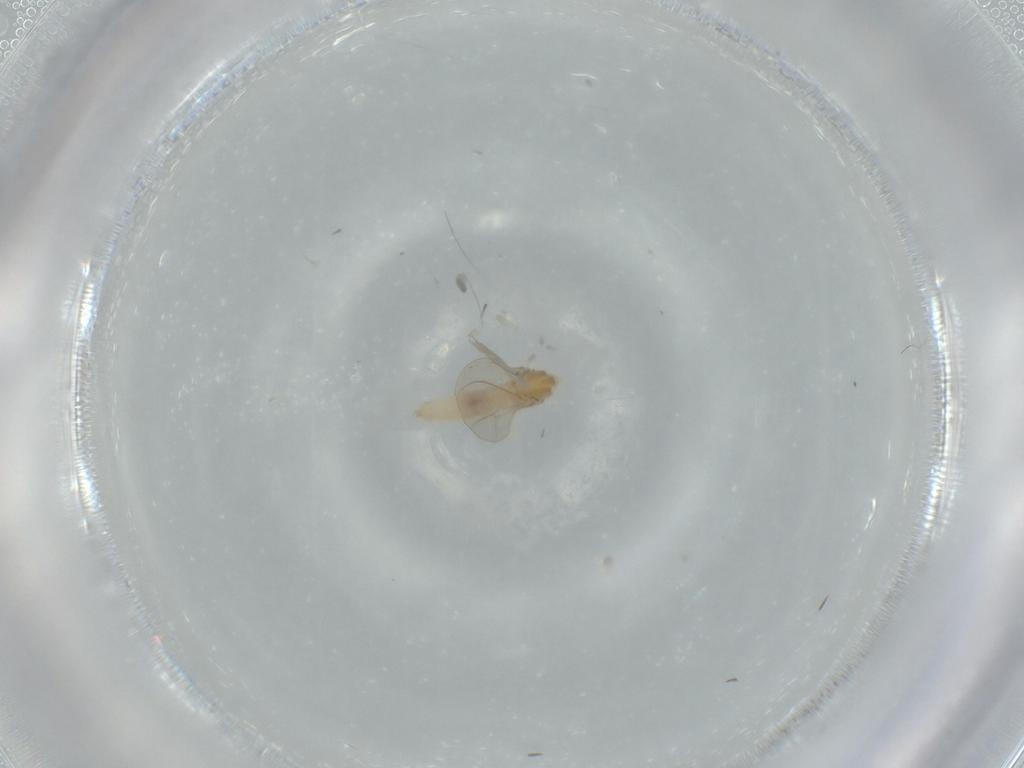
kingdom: Animalia
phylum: Arthropoda
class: Insecta
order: Diptera
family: Cecidomyiidae
